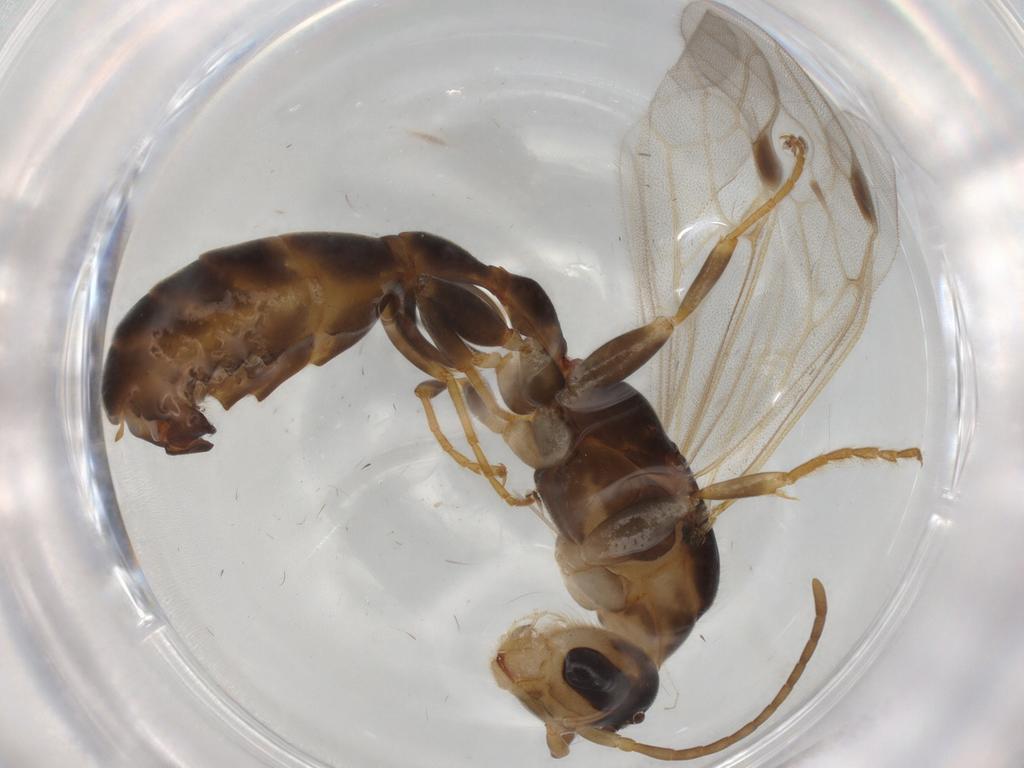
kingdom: Animalia
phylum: Arthropoda
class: Insecta
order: Hymenoptera
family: Formicidae
